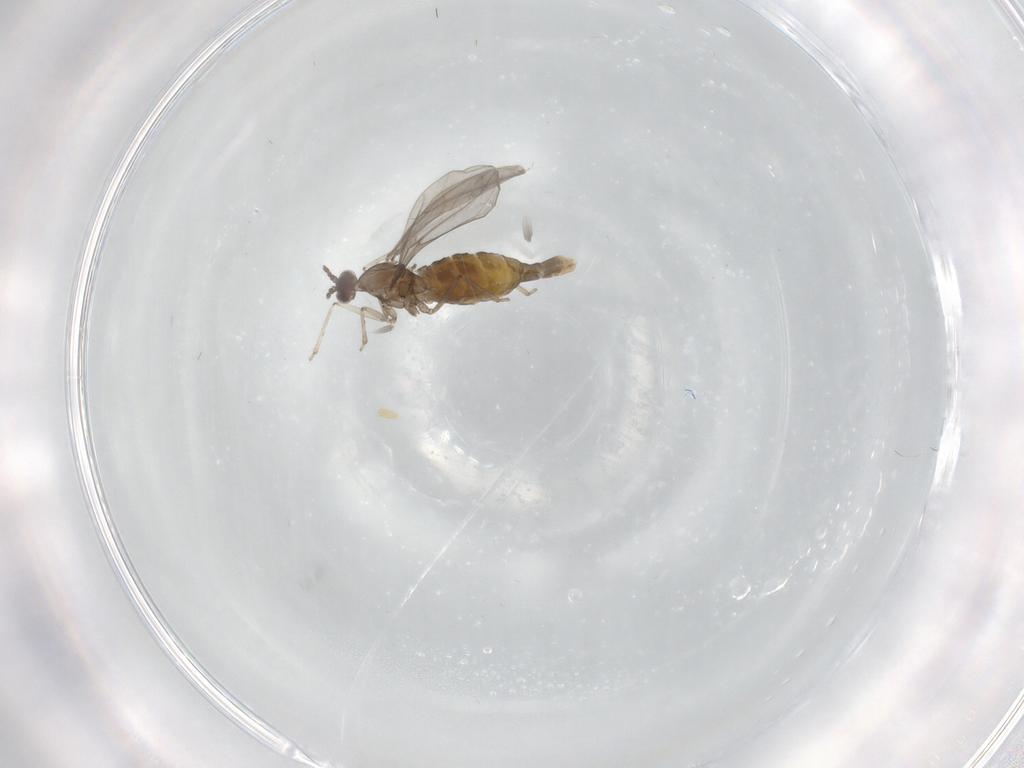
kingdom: Animalia
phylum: Arthropoda
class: Insecta
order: Diptera
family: Cecidomyiidae
